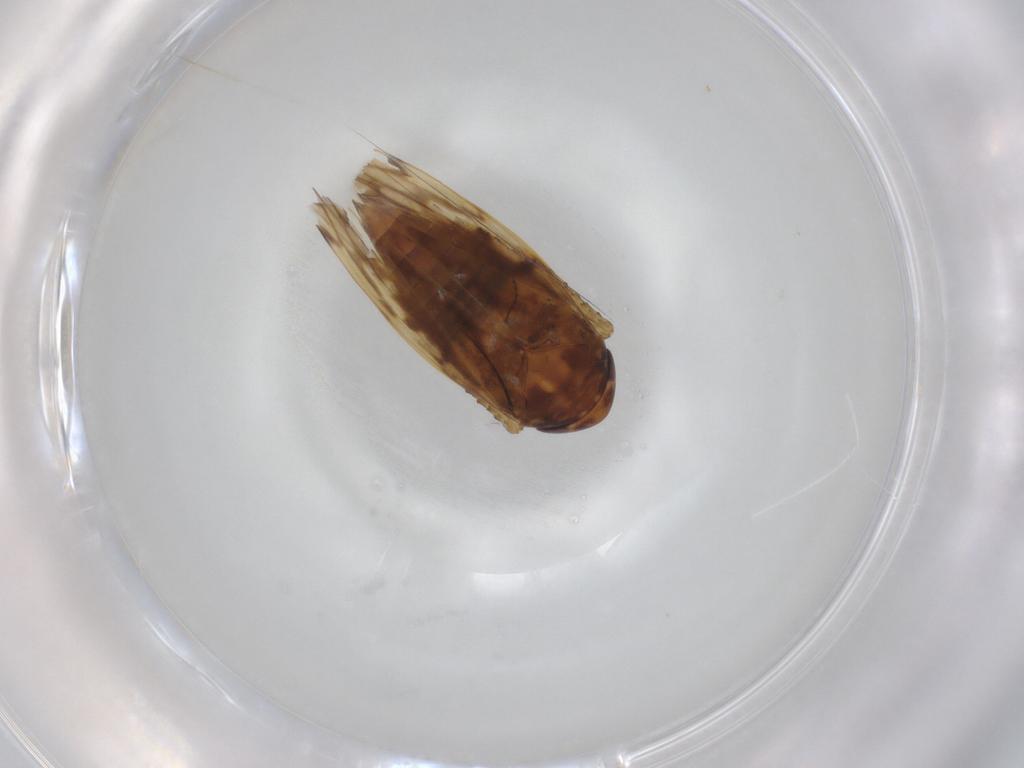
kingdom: Animalia
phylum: Arthropoda
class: Insecta
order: Hemiptera
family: Cicadellidae
